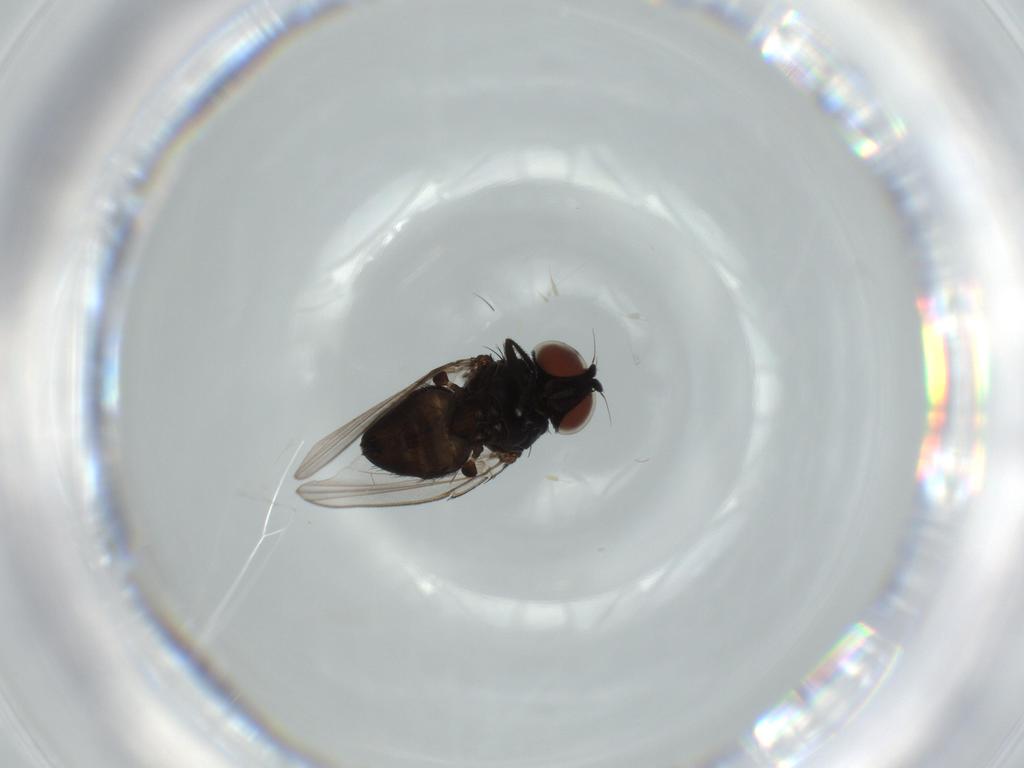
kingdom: Animalia
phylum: Arthropoda
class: Insecta
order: Diptera
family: Milichiidae
